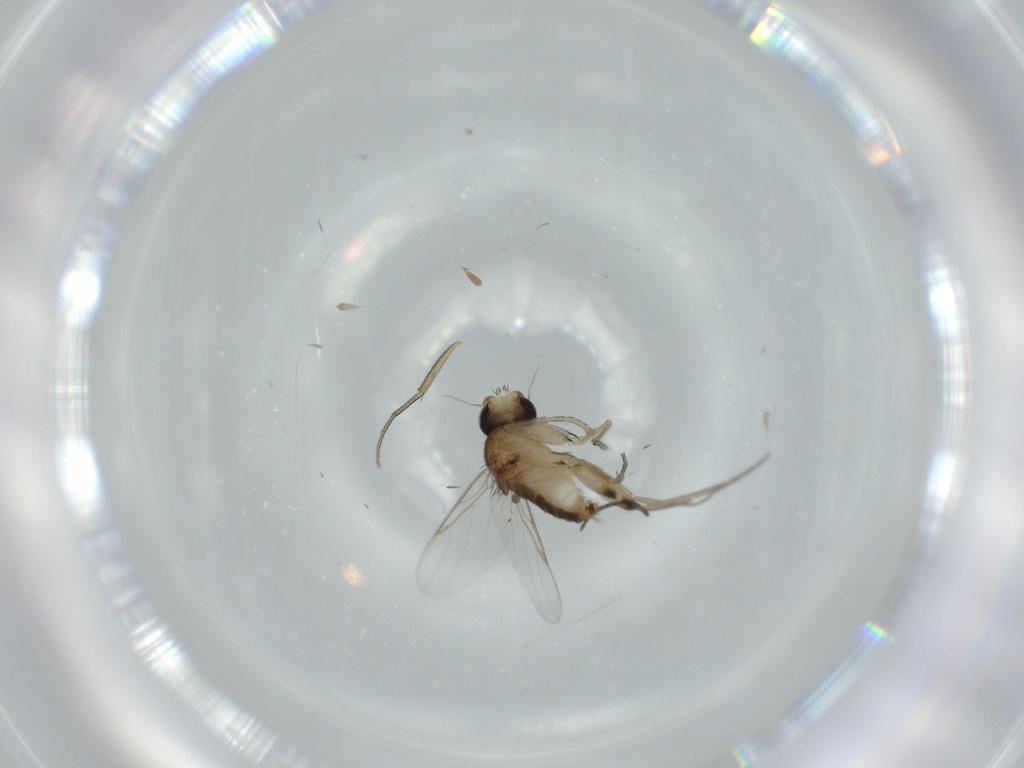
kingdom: Animalia
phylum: Arthropoda
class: Insecta
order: Diptera
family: Phoridae
